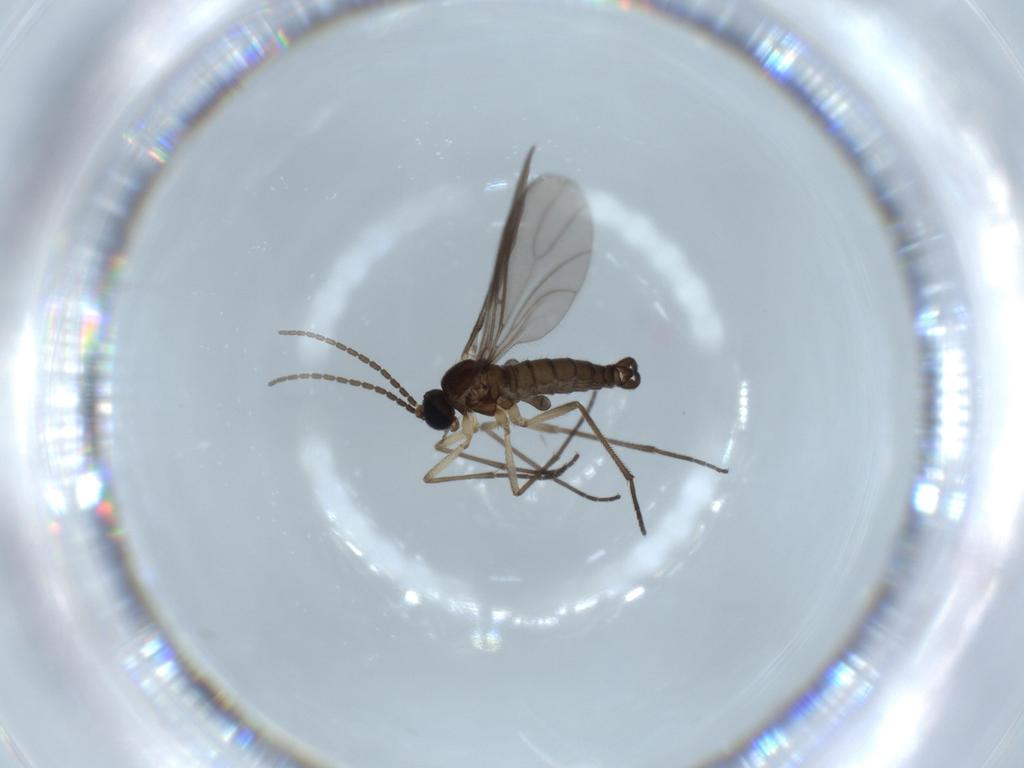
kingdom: Animalia
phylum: Arthropoda
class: Insecta
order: Diptera
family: Sciaridae
